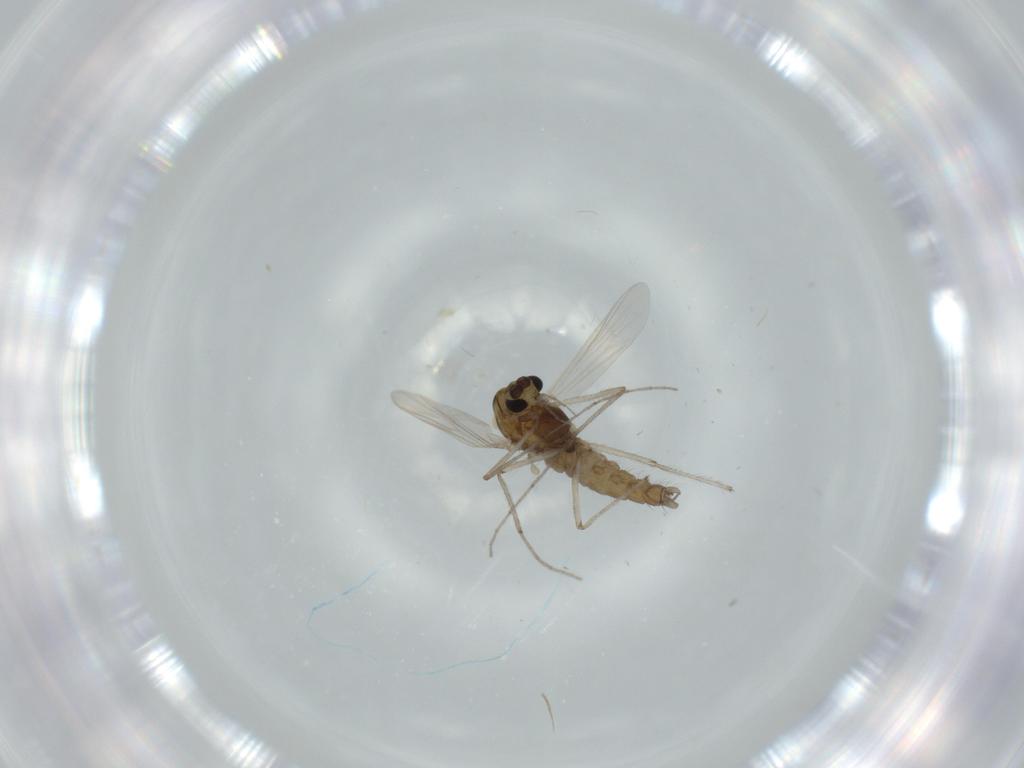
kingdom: Animalia
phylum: Arthropoda
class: Insecta
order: Diptera
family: Chironomidae
